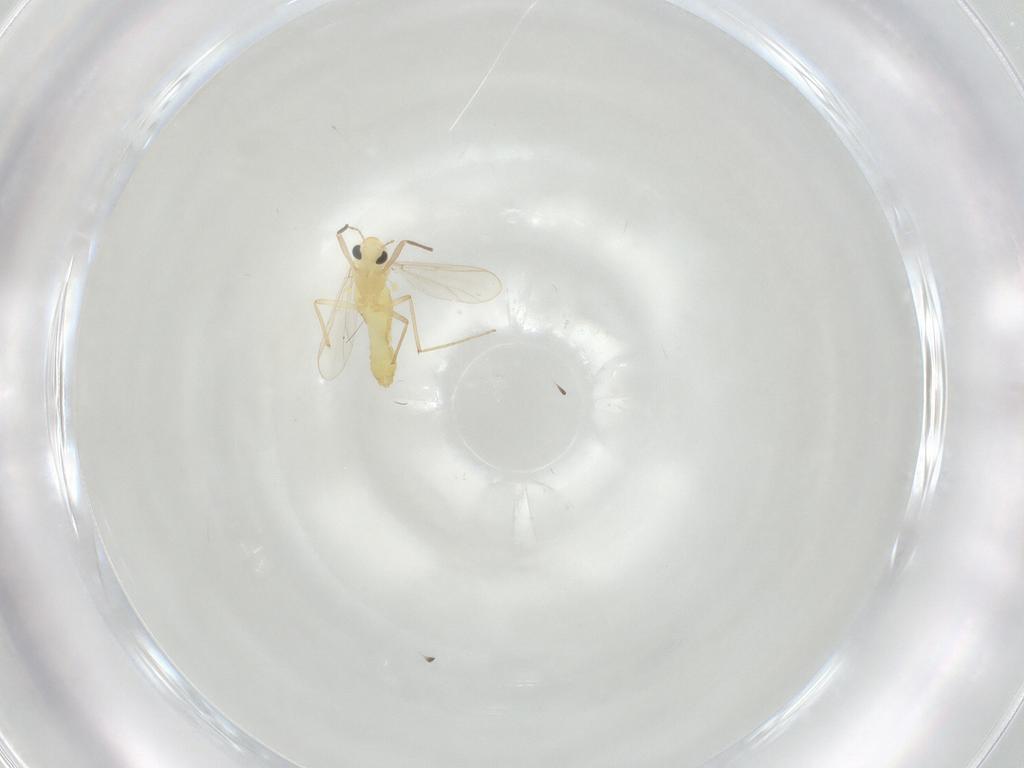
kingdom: Animalia
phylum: Arthropoda
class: Insecta
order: Diptera
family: Chironomidae
